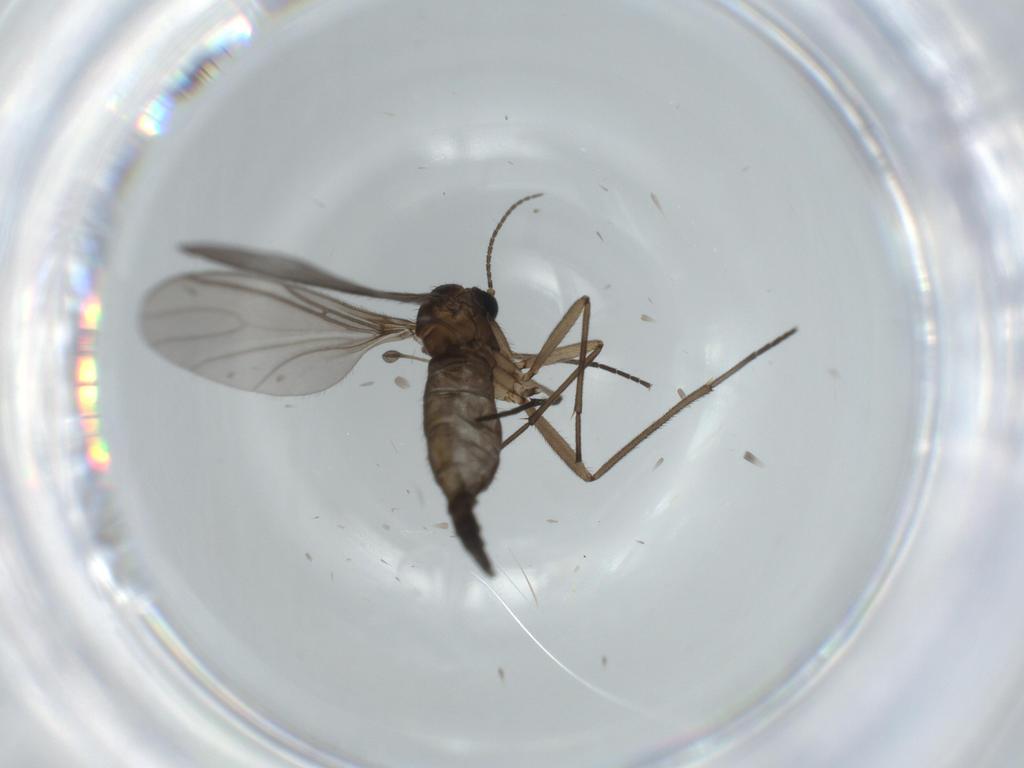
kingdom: Animalia
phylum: Arthropoda
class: Insecta
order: Diptera
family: Sciaridae
